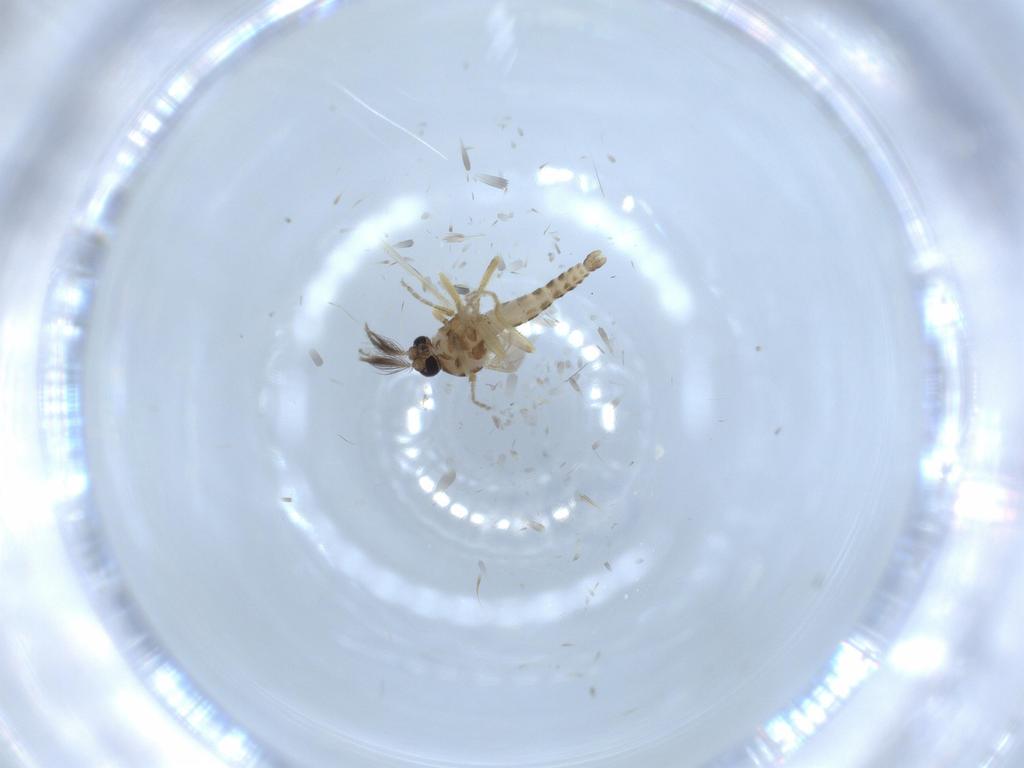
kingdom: Animalia
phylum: Arthropoda
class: Insecta
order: Diptera
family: Ceratopogonidae
